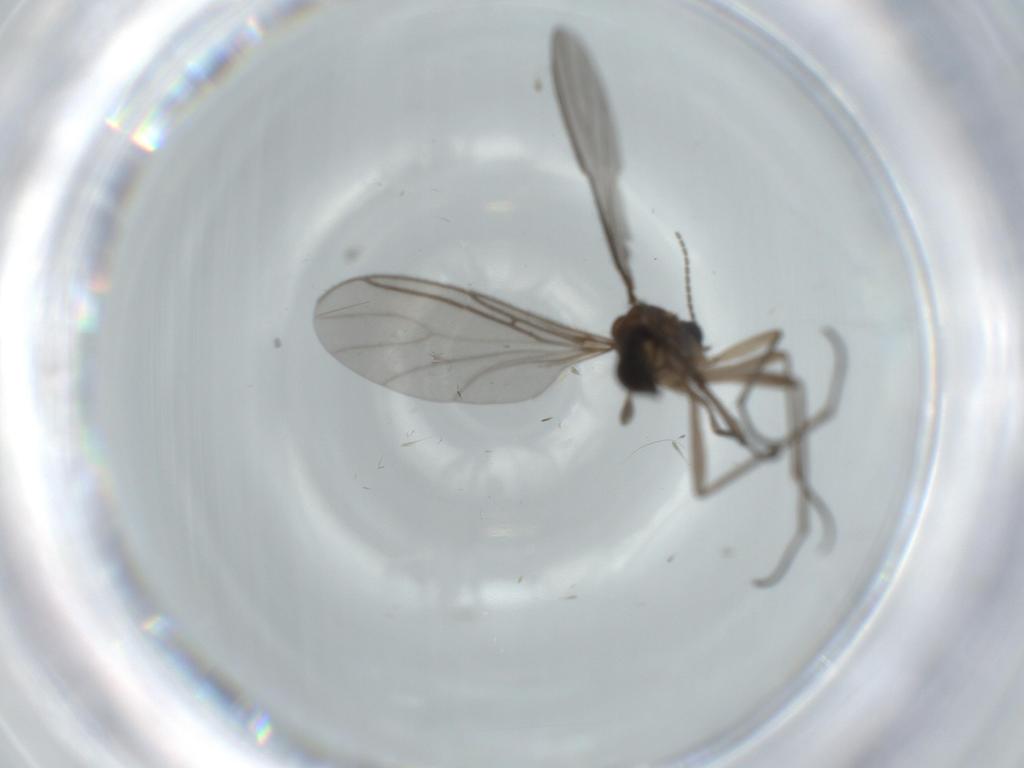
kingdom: Animalia
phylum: Arthropoda
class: Insecta
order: Diptera
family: Sciaridae
